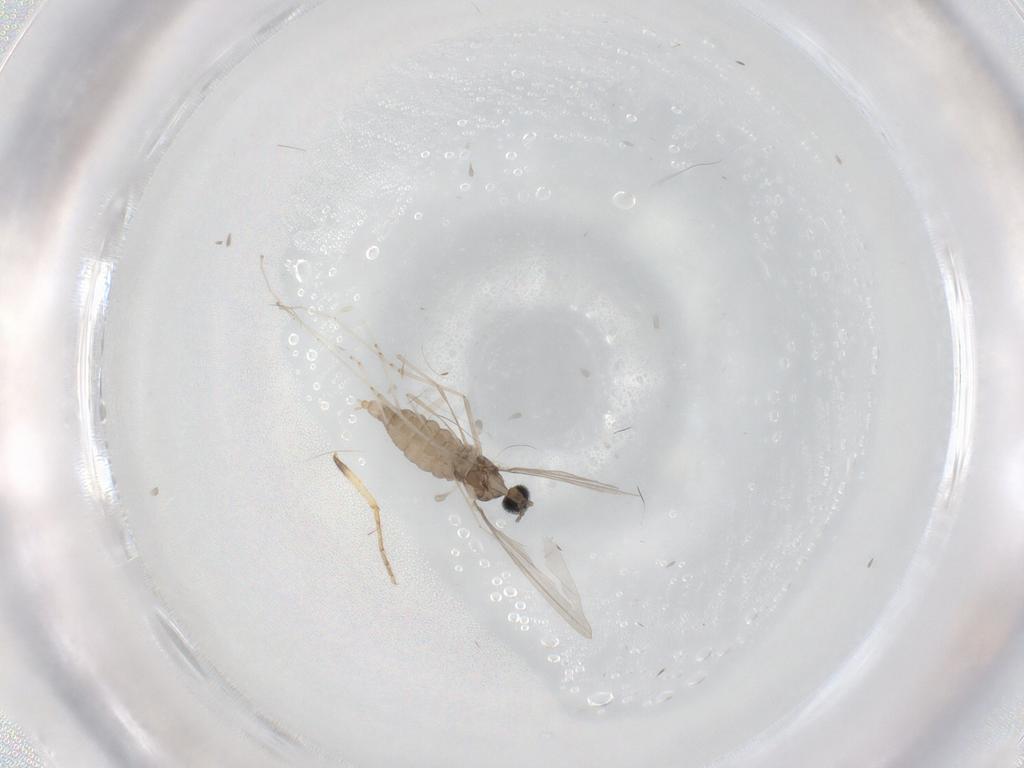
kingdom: Animalia
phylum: Arthropoda
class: Insecta
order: Diptera
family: Cecidomyiidae
